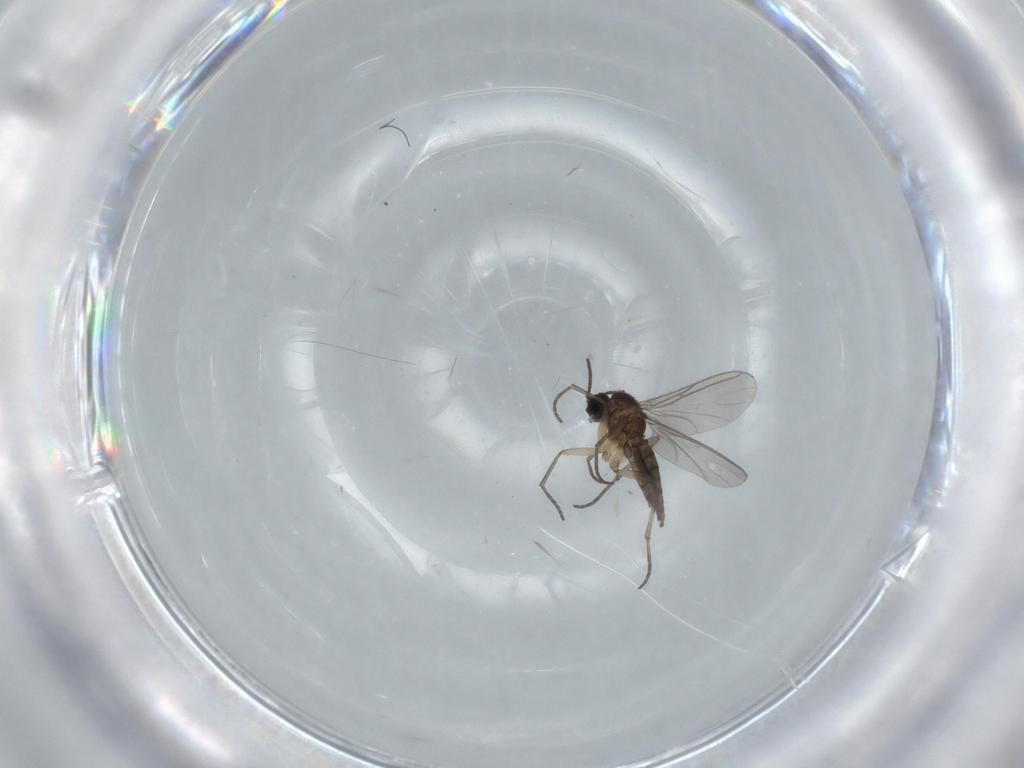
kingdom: Animalia
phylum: Arthropoda
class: Insecta
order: Diptera
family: Sciaridae
